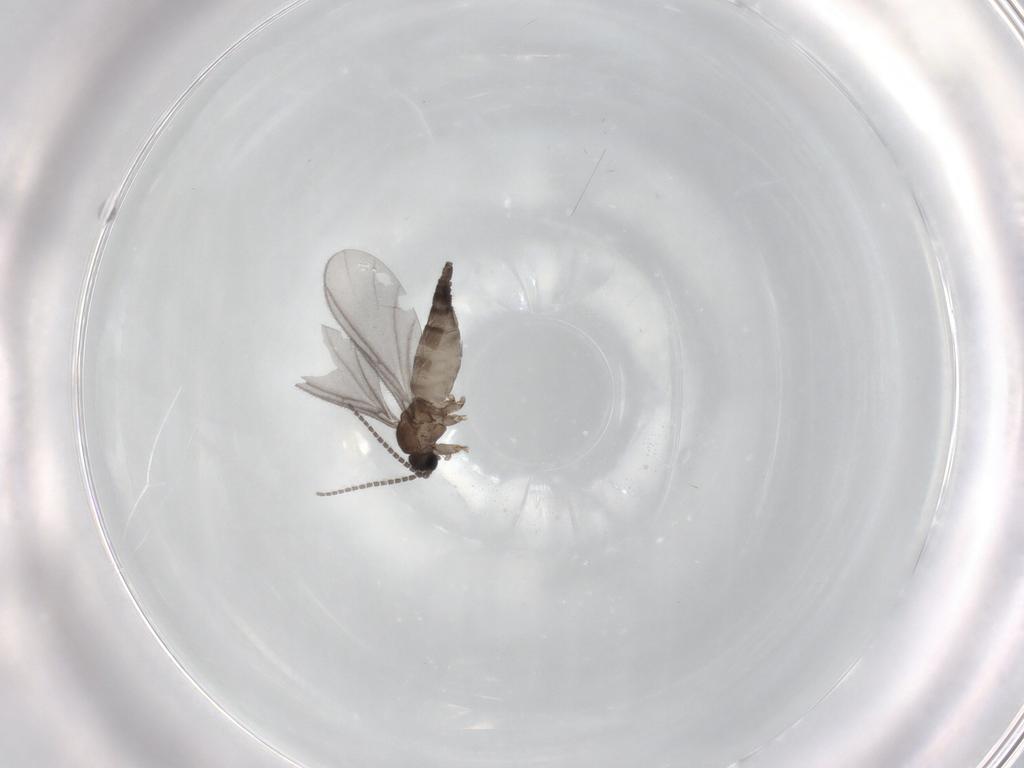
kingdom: Animalia
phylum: Arthropoda
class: Insecta
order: Diptera
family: Sciaridae
